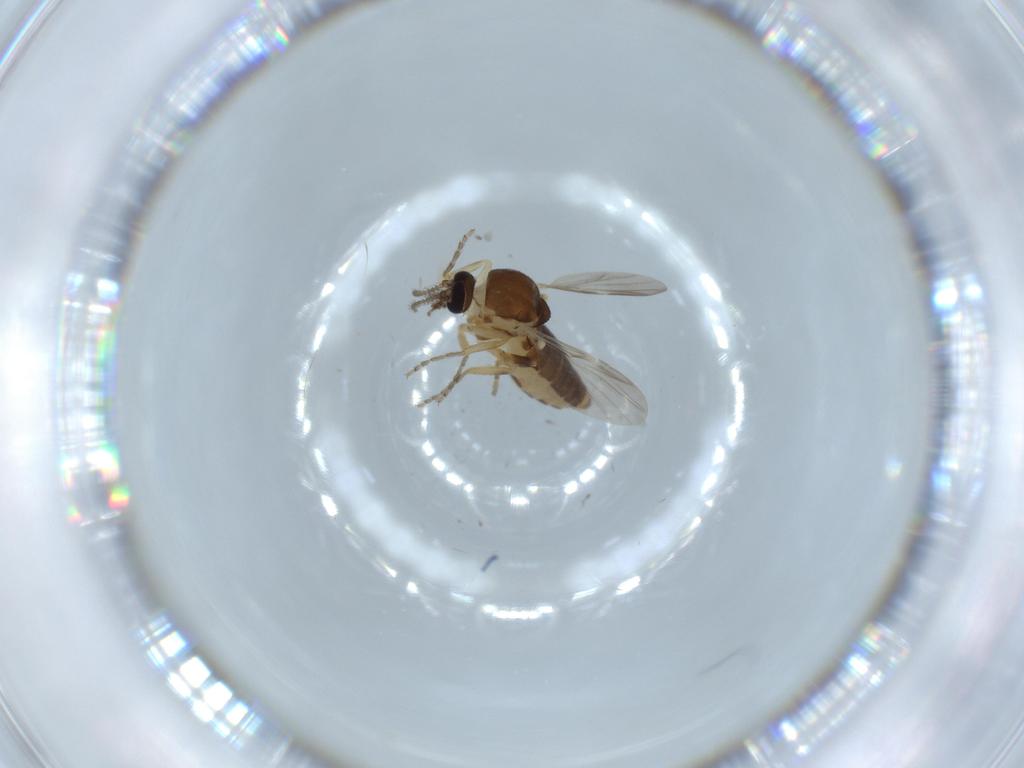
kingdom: Animalia
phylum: Arthropoda
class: Insecta
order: Diptera
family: Ceratopogonidae
